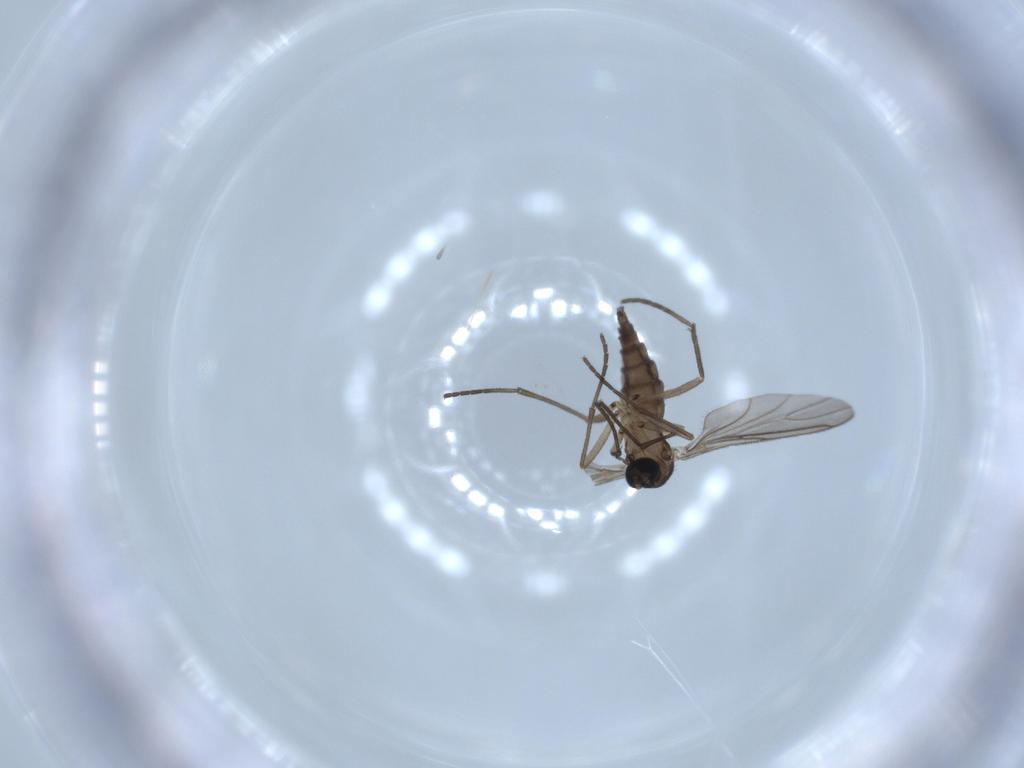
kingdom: Animalia
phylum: Arthropoda
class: Insecta
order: Diptera
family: Sciaridae
